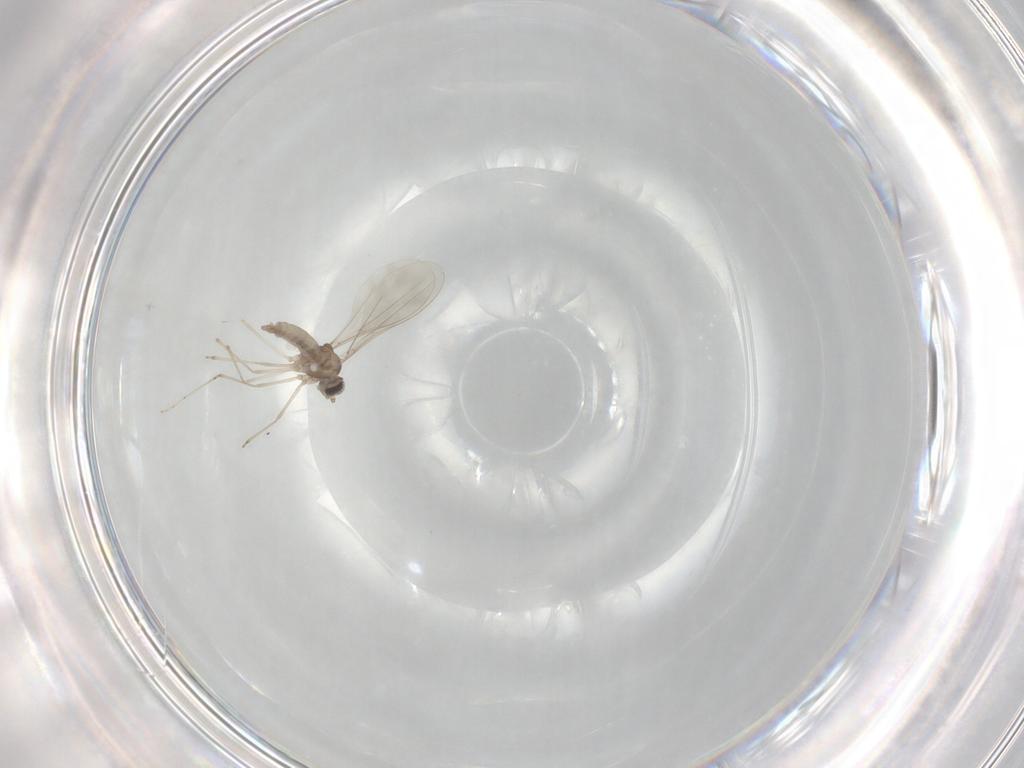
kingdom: Animalia
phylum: Arthropoda
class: Insecta
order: Diptera
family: Cecidomyiidae
